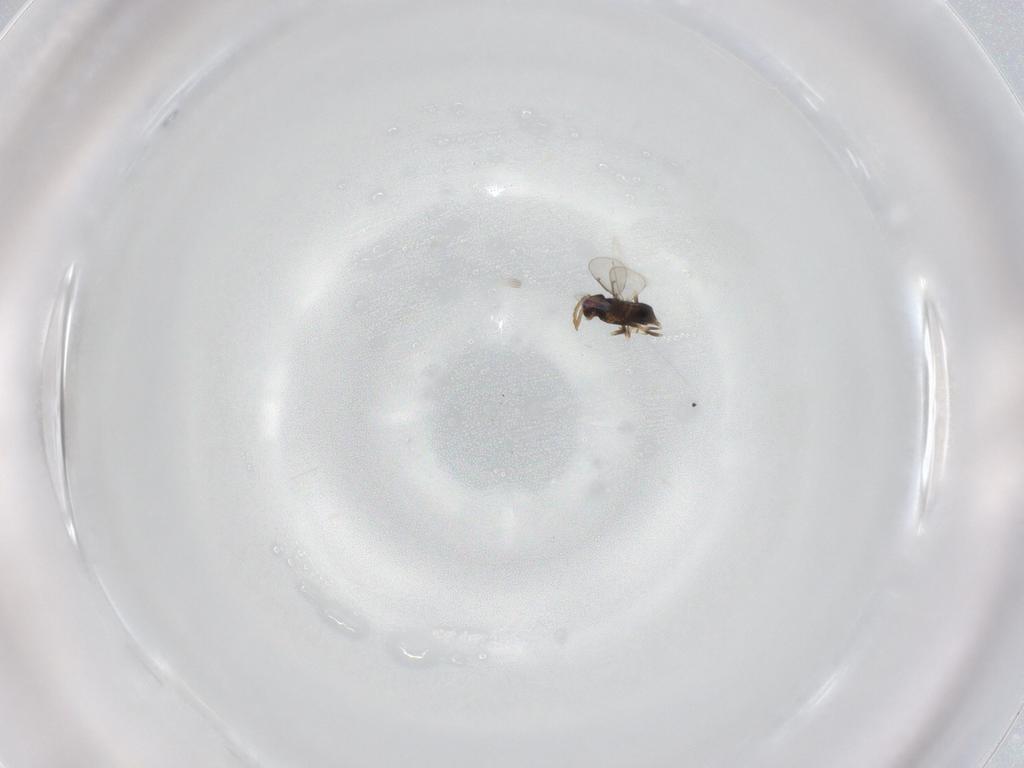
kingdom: Animalia
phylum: Arthropoda
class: Insecta
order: Hymenoptera
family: Aphelinidae
